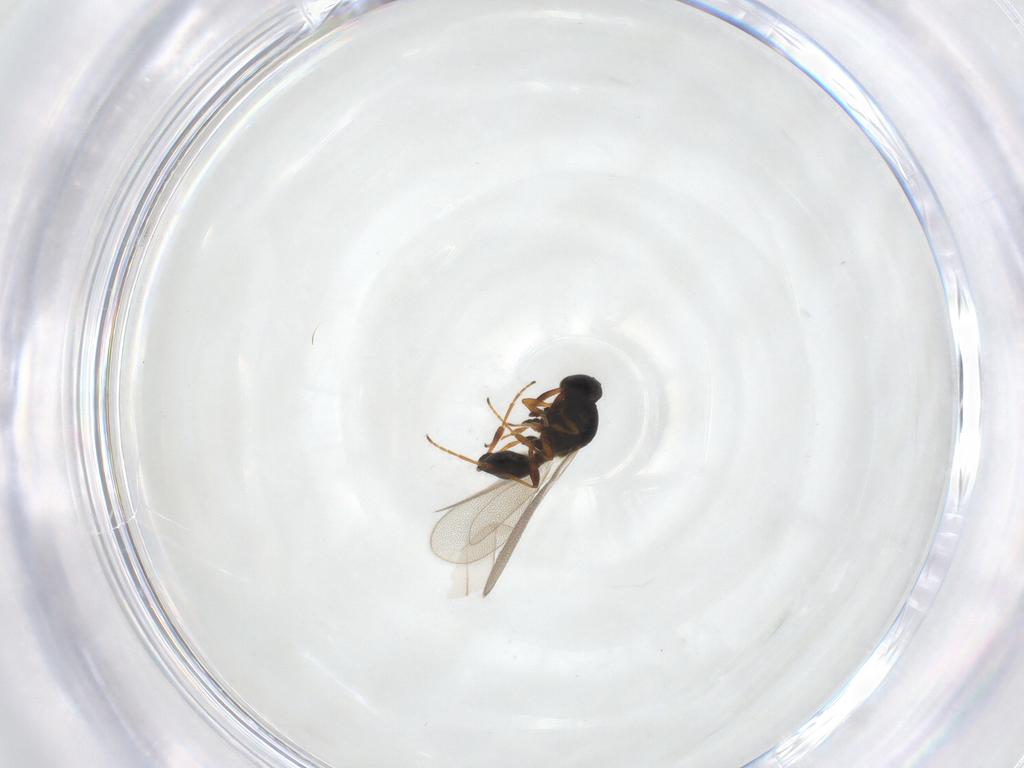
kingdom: Animalia
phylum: Arthropoda
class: Insecta
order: Hymenoptera
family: Platygastridae
